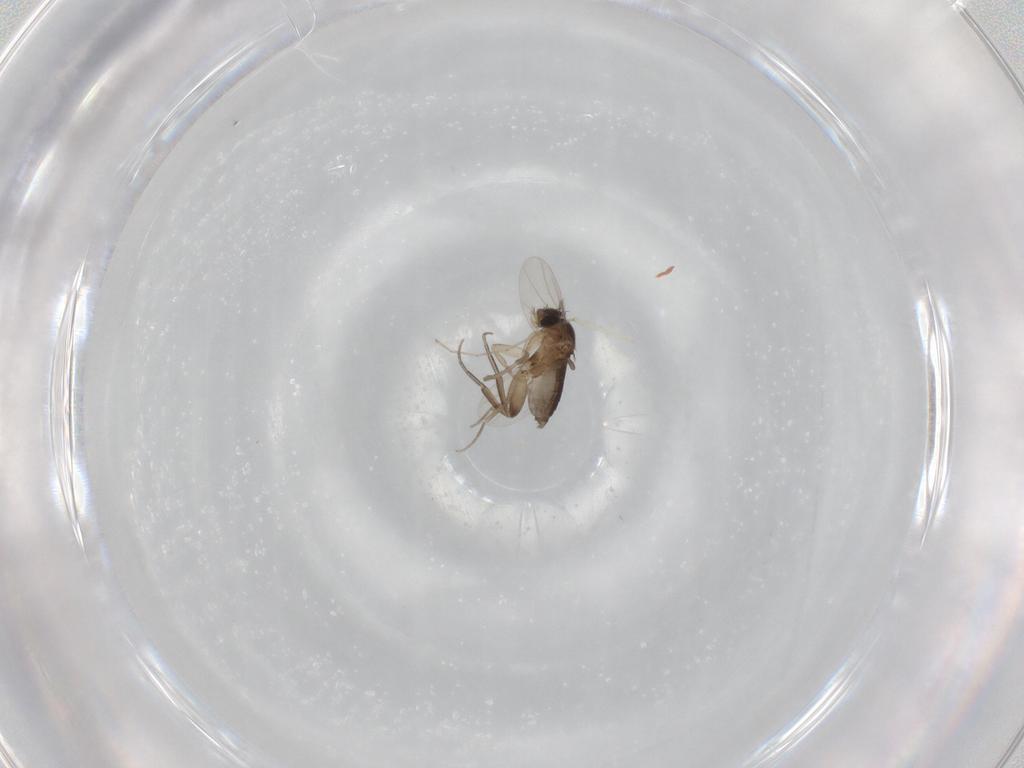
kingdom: Animalia
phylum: Arthropoda
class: Insecta
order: Diptera
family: Phoridae
